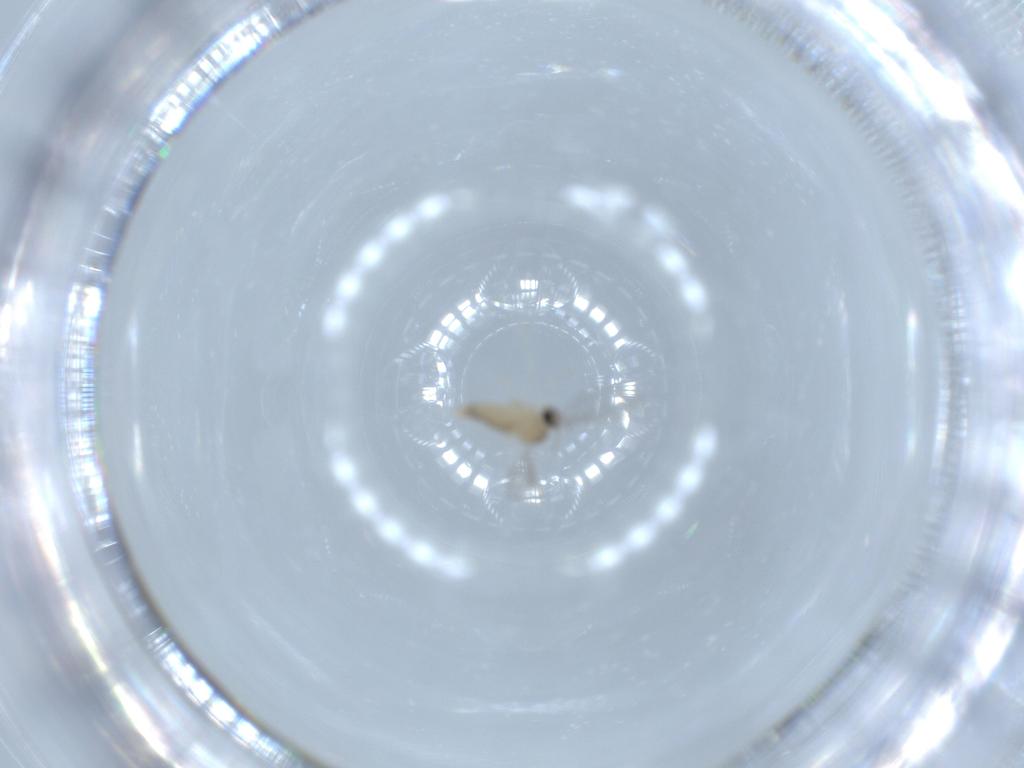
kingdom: Animalia
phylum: Arthropoda
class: Insecta
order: Diptera
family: Cecidomyiidae
